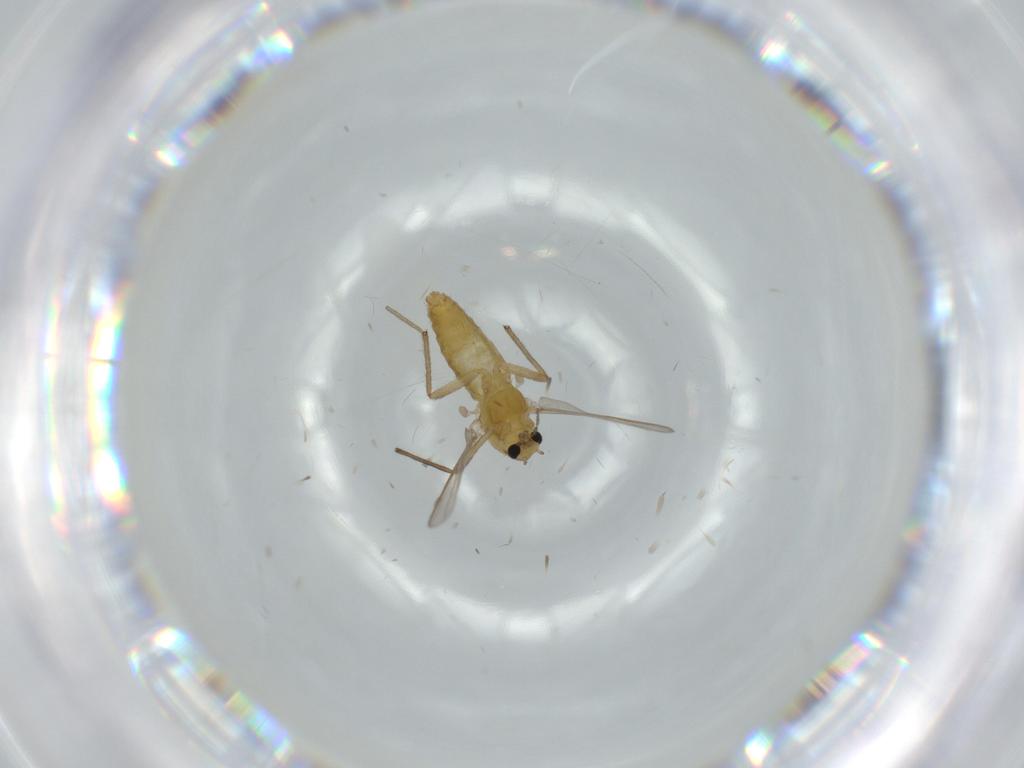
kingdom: Animalia
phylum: Arthropoda
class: Insecta
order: Diptera
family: Chironomidae
